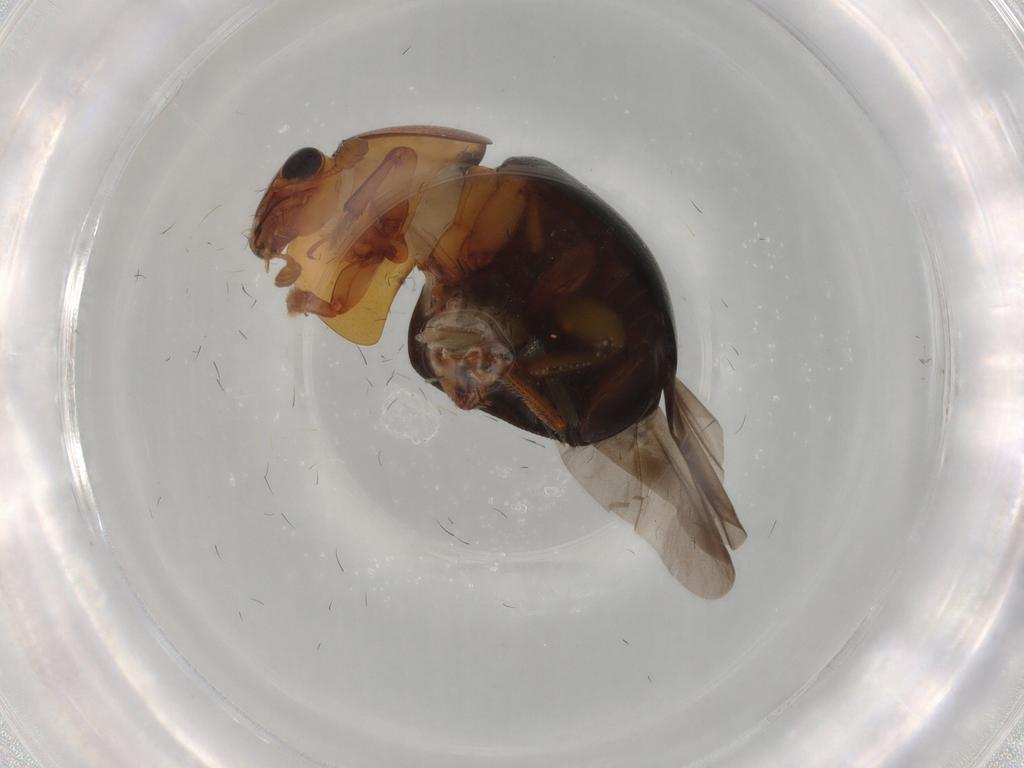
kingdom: Animalia
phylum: Arthropoda
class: Insecta
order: Coleoptera
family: Nitidulidae
